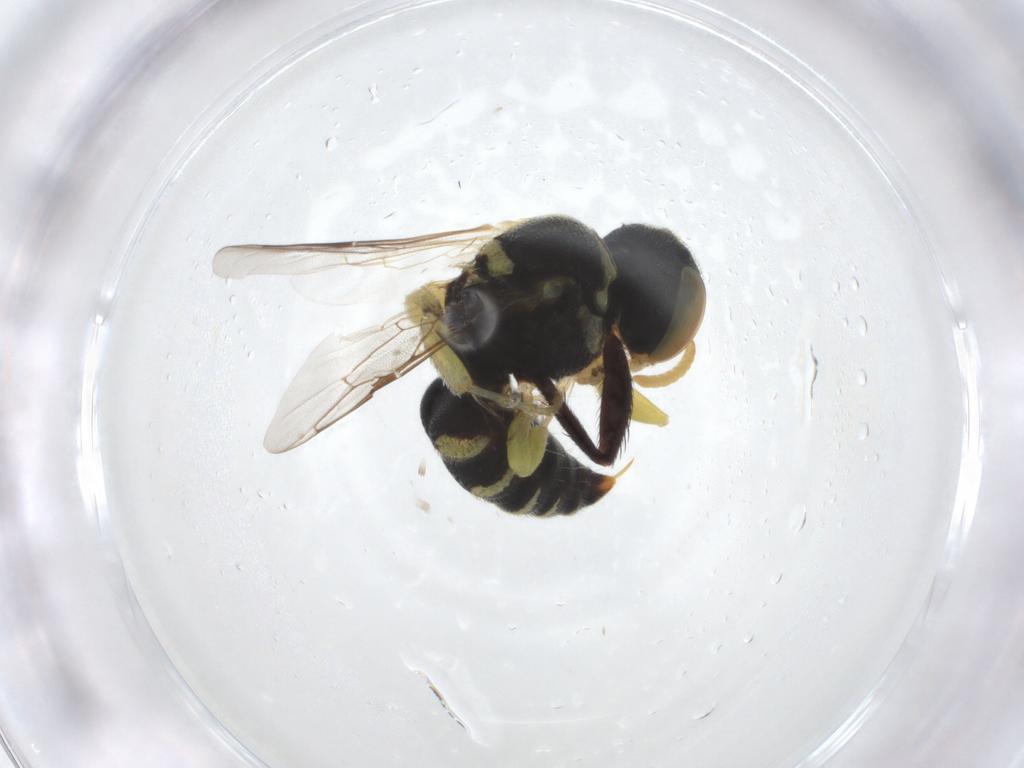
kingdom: Animalia
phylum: Arthropoda
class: Insecta
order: Hymenoptera
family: Crabronidae
